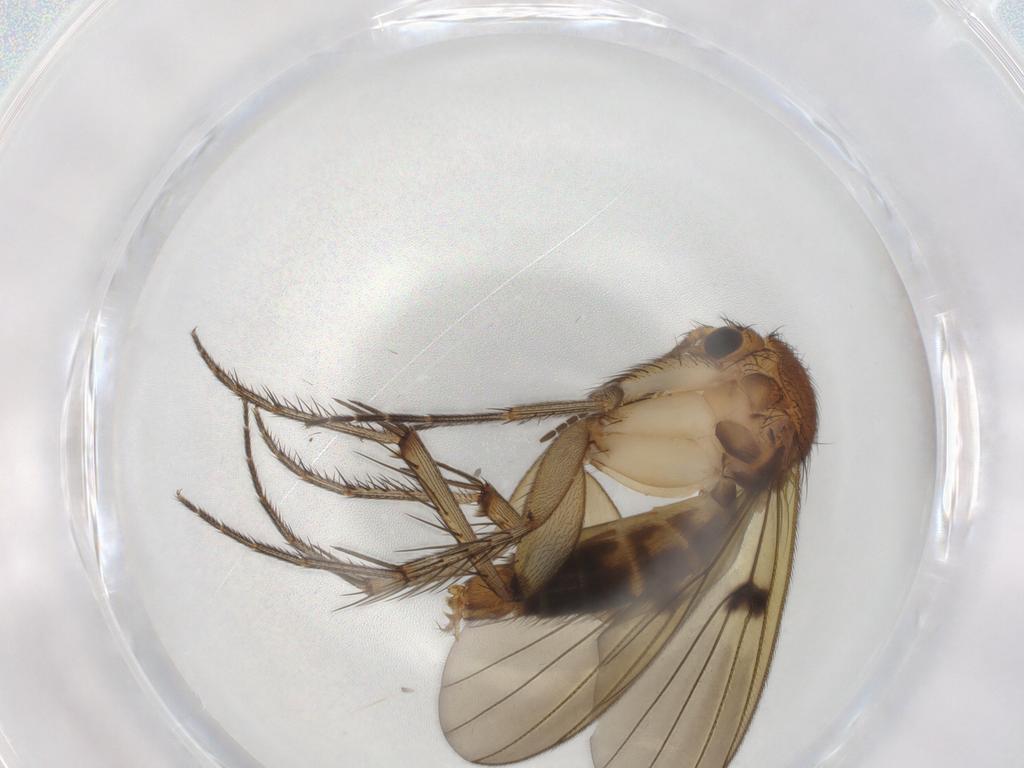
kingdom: Animalia
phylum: Arthropoda
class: Insecta
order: Diptera
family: Mycetophilidae
